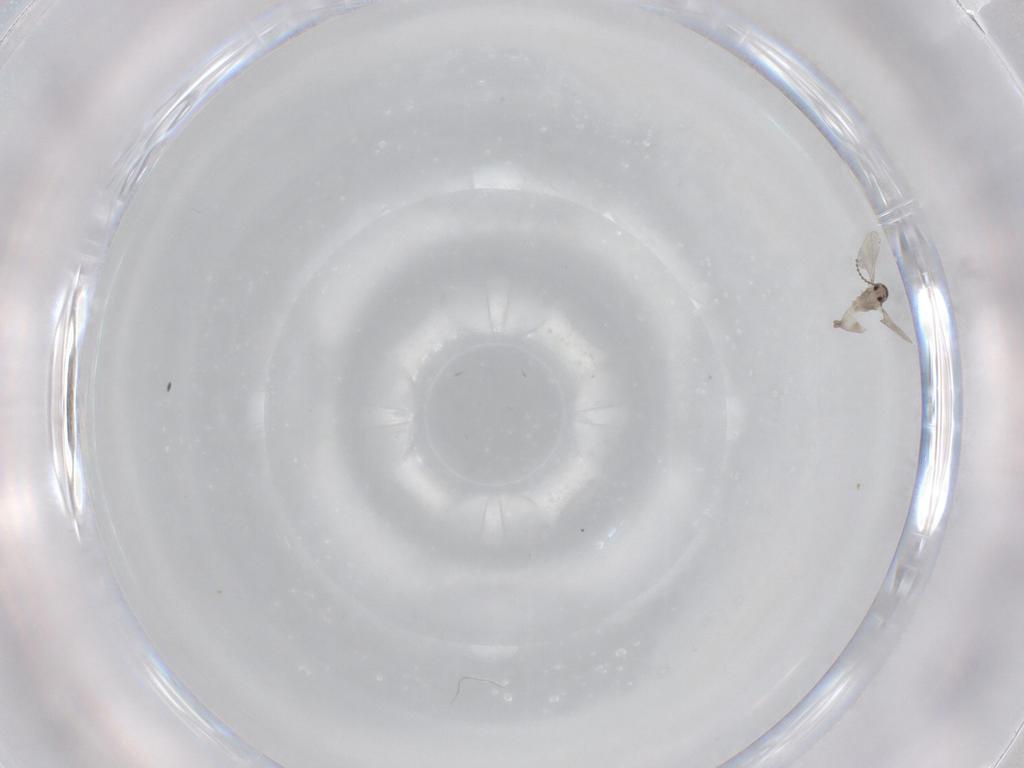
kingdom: Animalia
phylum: Arthropoda
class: Insecta
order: Diptera
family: Cecidomyiidae
